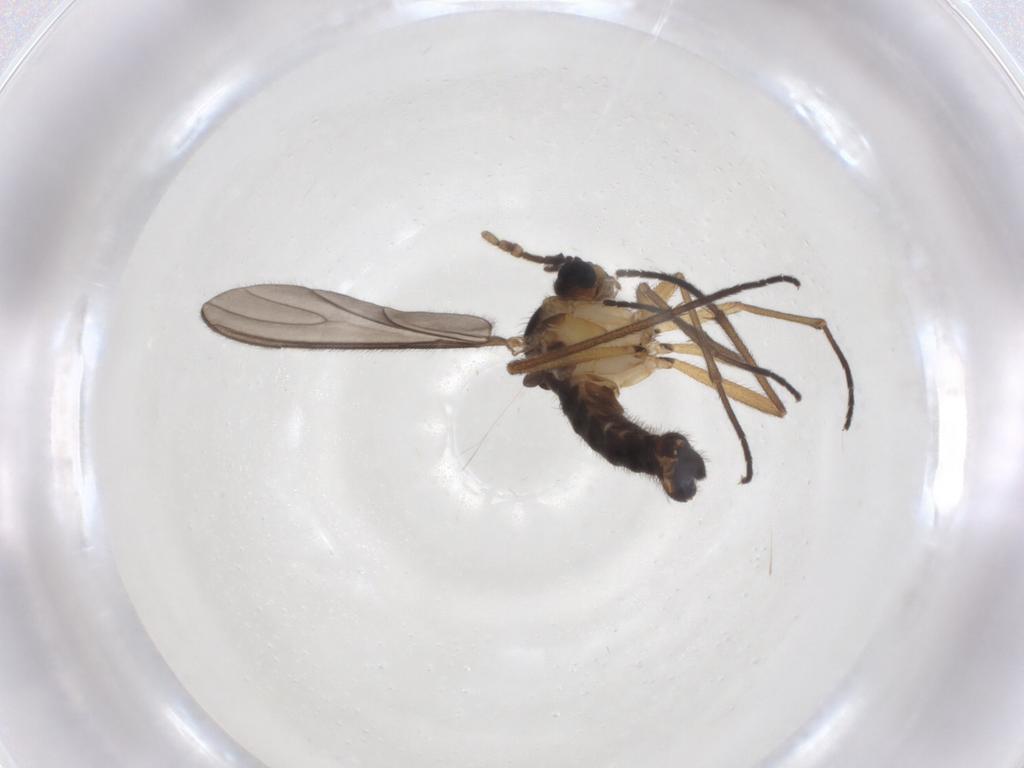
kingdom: Animalia
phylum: Arthropoda
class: Insecta
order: Diptera
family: Sciaridae
